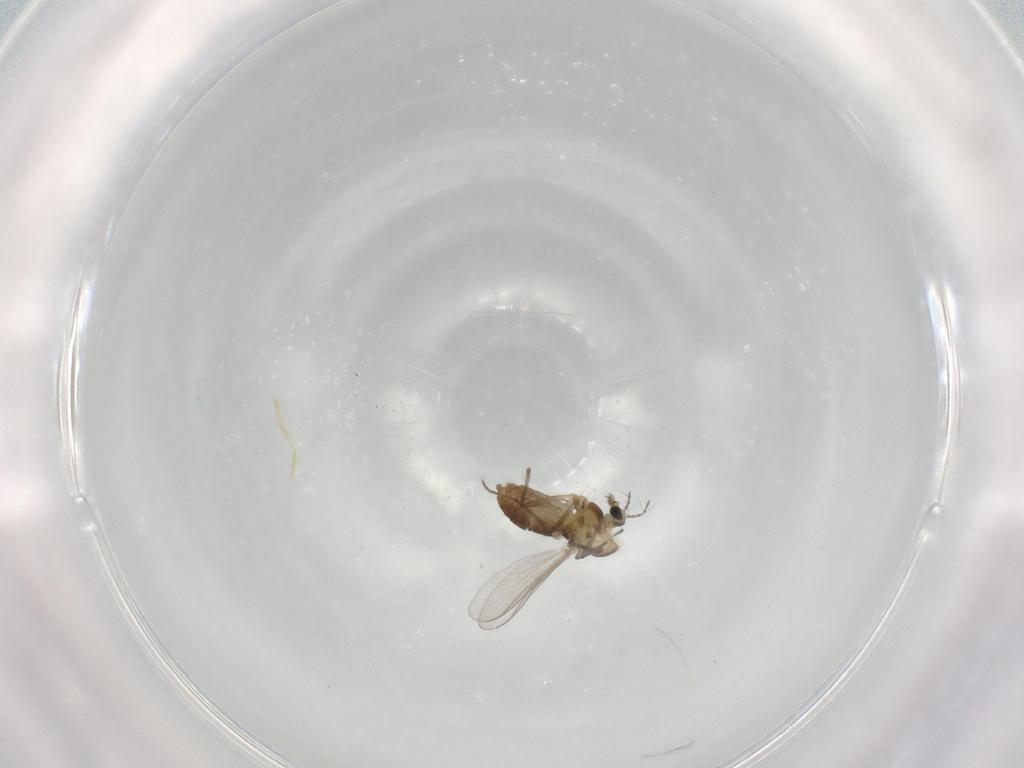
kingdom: Animalia
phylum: Arthropoda
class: Insecta
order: Diptera
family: Chironomidae
